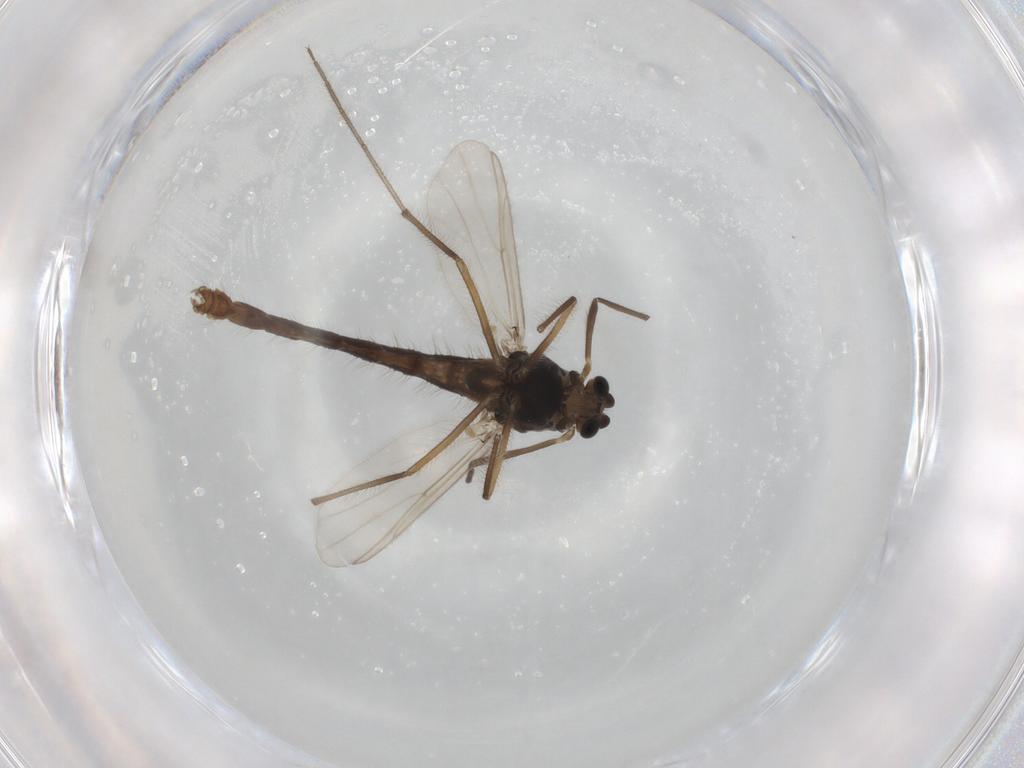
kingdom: Animalia
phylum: Arthropoda
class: Insecta
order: Diptera
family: Chironomidae
